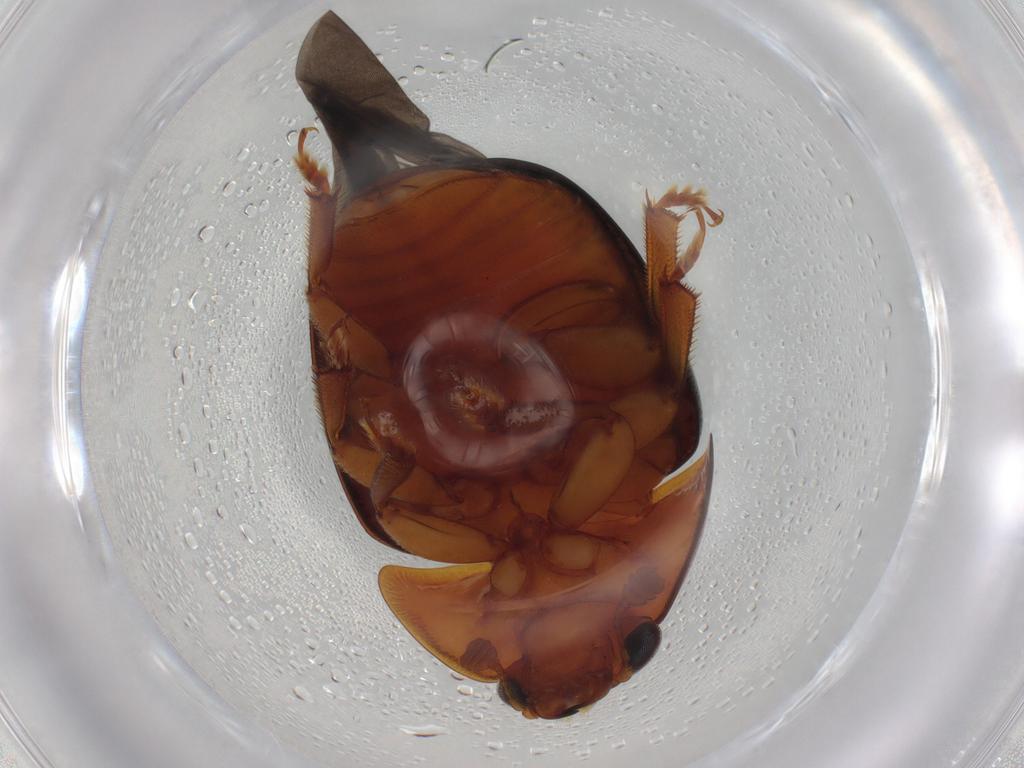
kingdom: Animalia
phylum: Arthropoda
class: Insecta
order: Coleoptera
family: Nitidulidae
